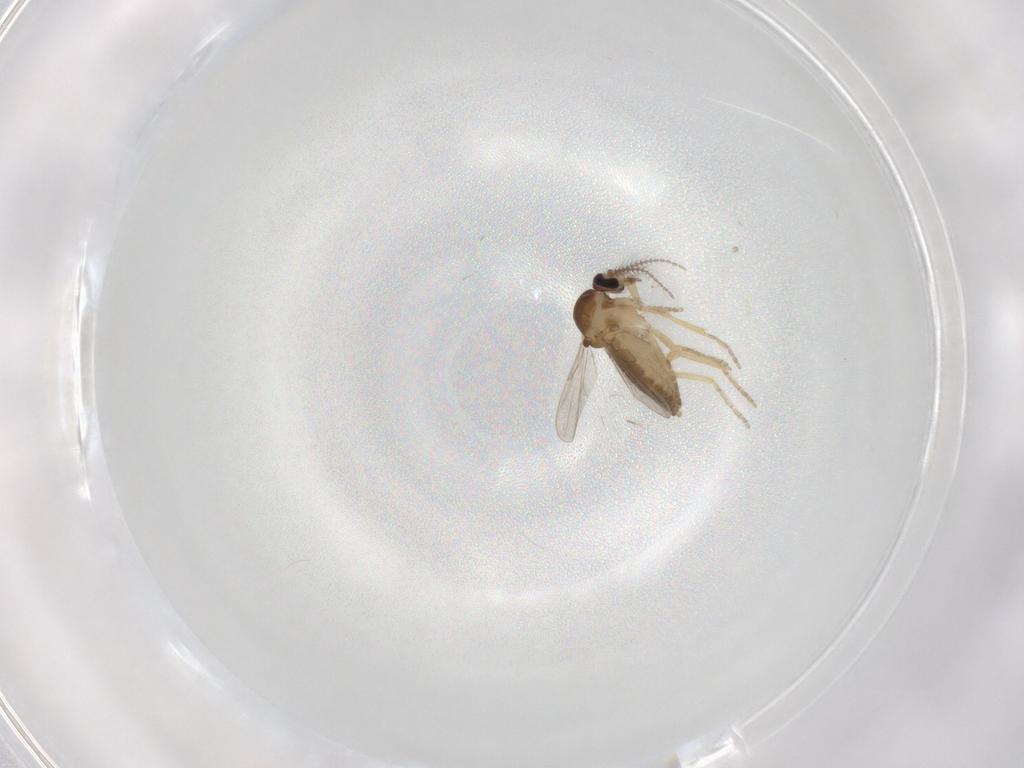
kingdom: Animalia
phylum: Arthropoda
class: Insecta
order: Diptera
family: Ceratopogonidae
